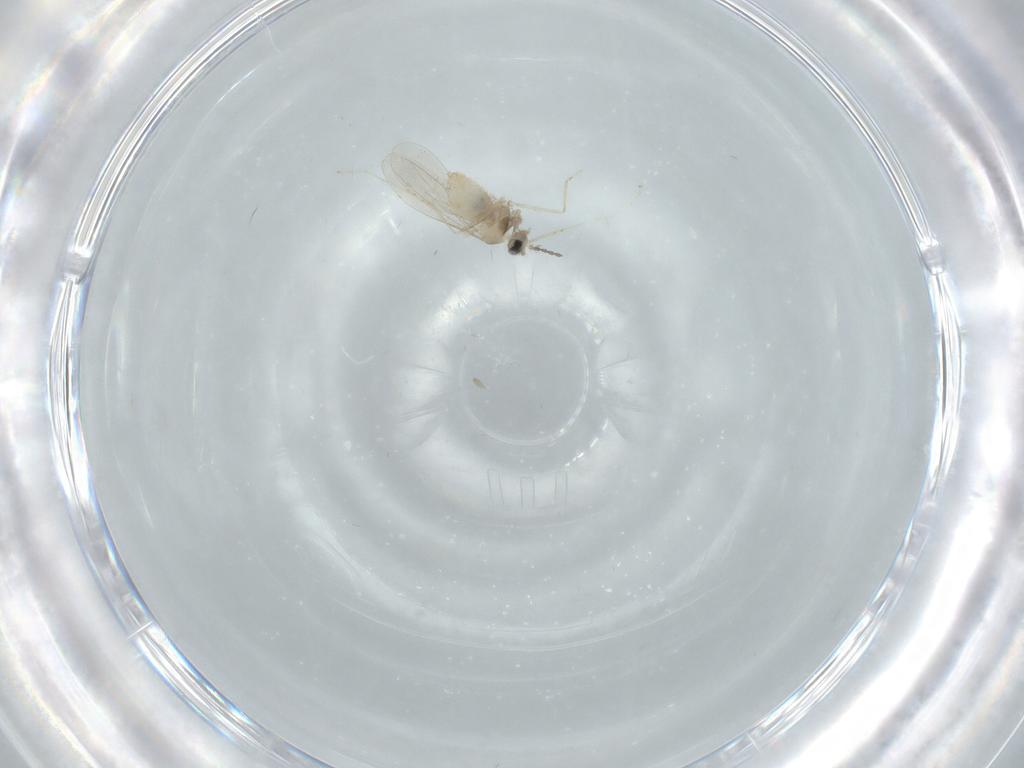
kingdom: Animalia
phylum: Arthropoda
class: Insecta
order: Diptera
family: Cecidomyiidae
